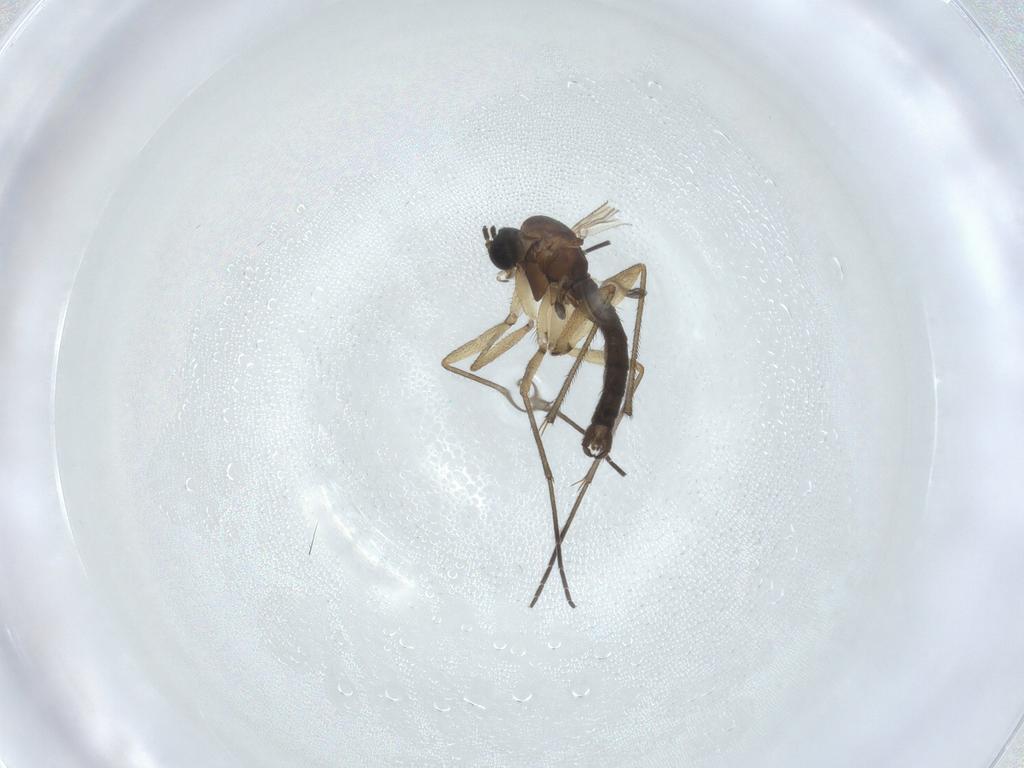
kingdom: Animalia
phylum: Arthropoda
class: Insecta
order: Diptera
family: Sciaridae
